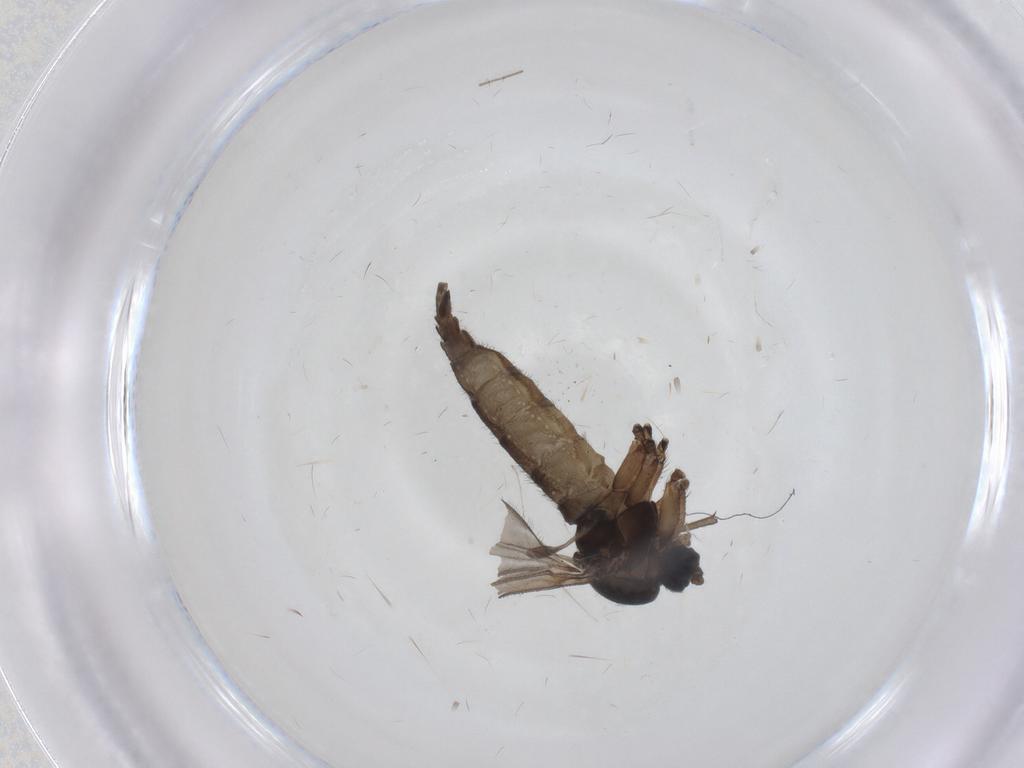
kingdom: Animalia
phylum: Arthropoda
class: Insecta
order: Diptera
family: Sciaridae
